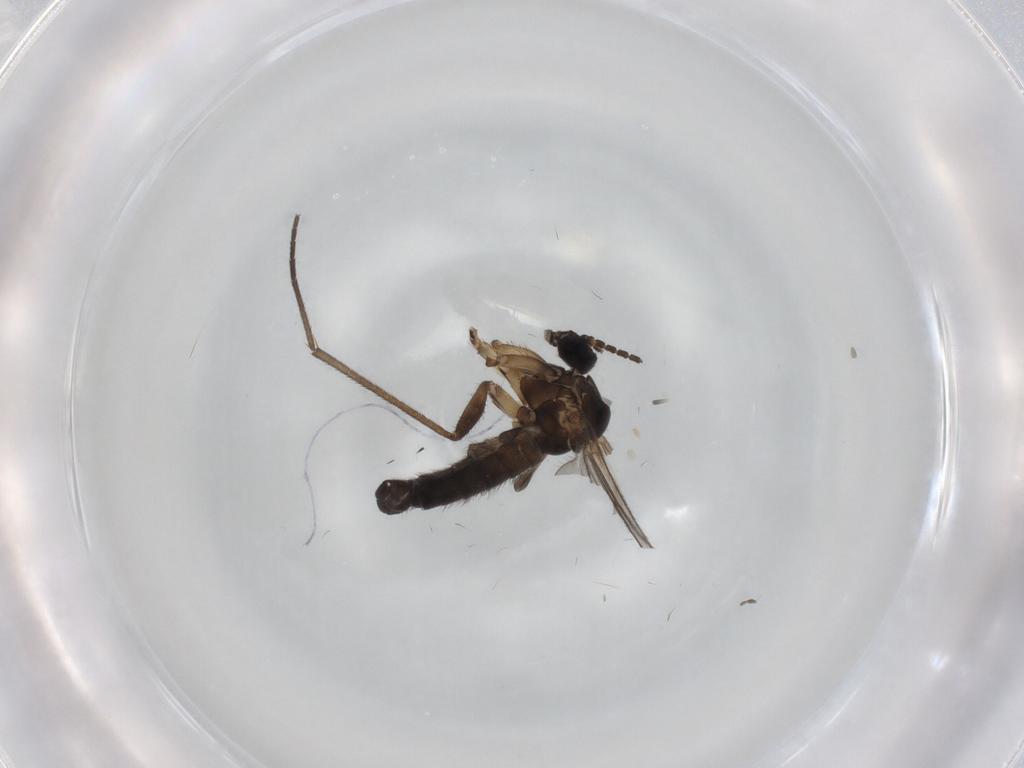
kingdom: Animalia
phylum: Arthropoda
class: Insecta
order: Diptera
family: Sciaridae
